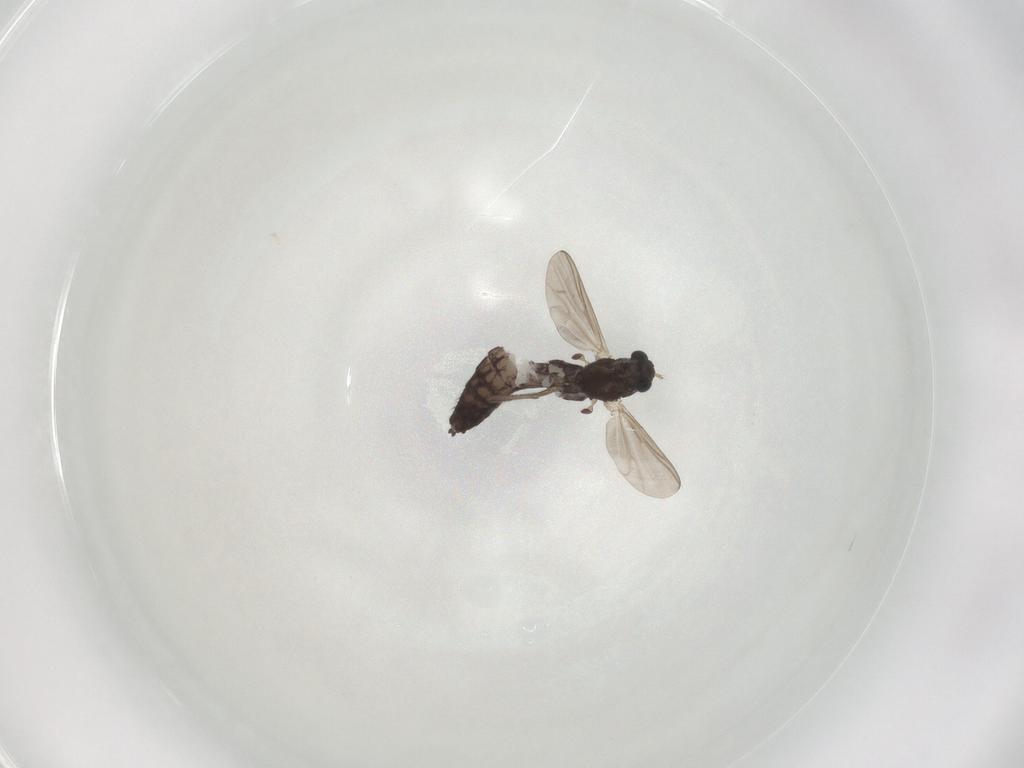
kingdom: Animalia
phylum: Arthropoda
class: Insecta
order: Diptera
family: Chironomidae
